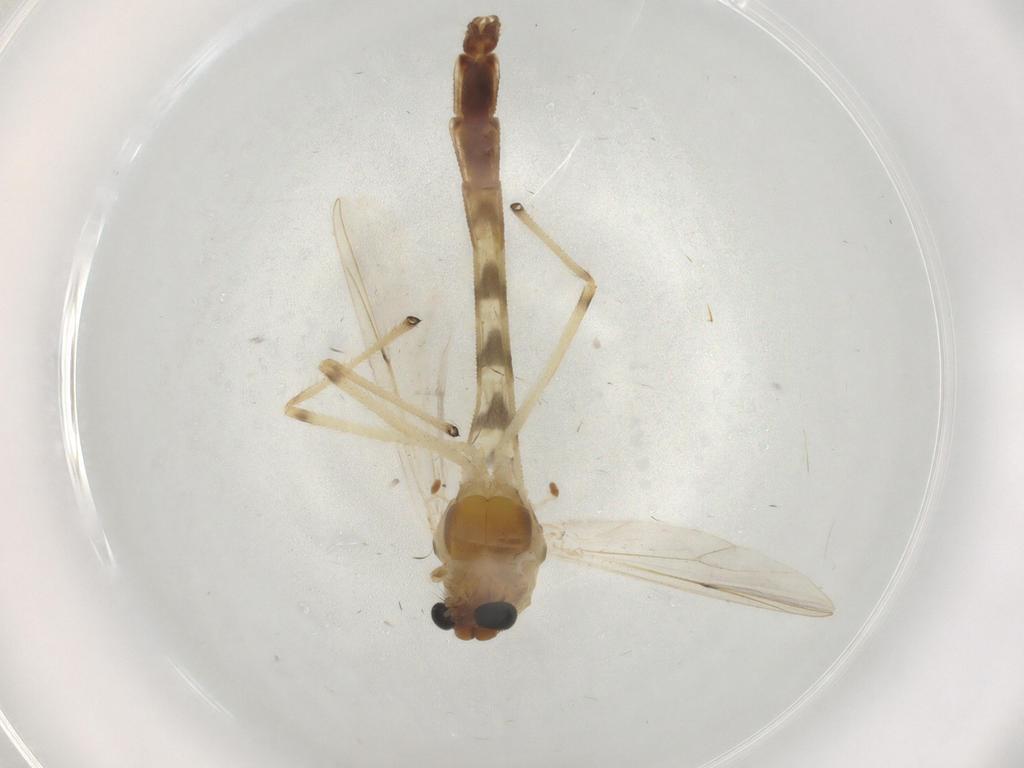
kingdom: Animalia
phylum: Arthropoda
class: Insecta
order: Diptera
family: Chironomidae
